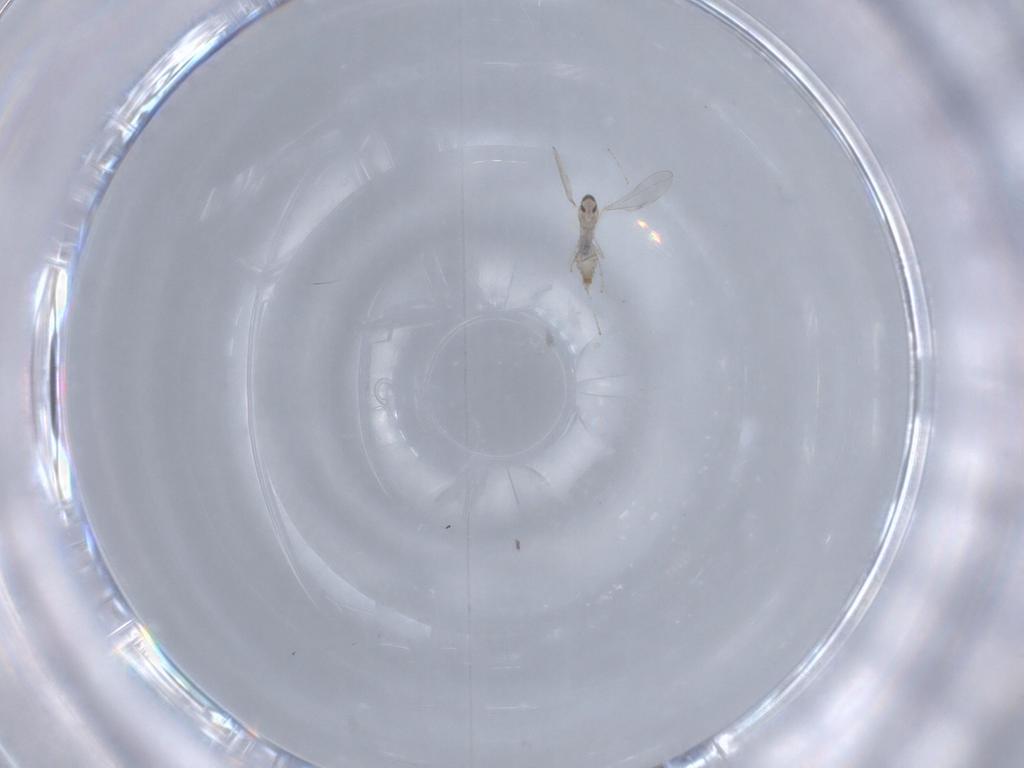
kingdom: Animalia
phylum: Arthropoda
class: Insecta
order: Diptera
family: Cecidomyiidae
